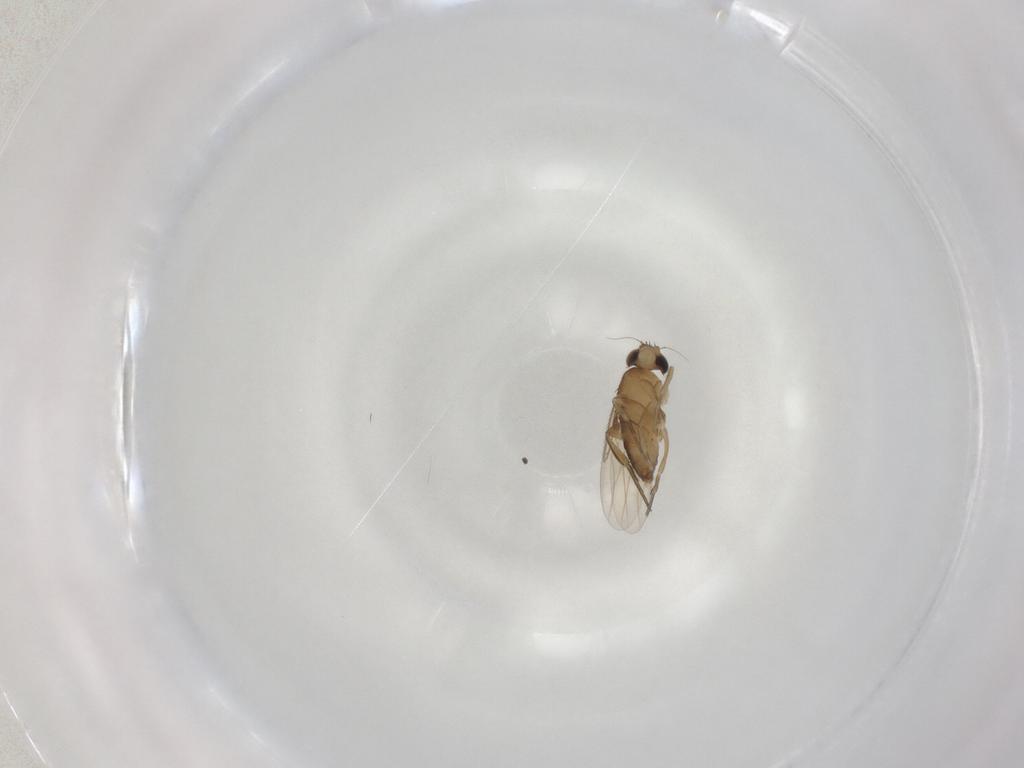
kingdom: Animalia
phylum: Arthropoda
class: Insecta
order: Diptera
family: Phoridae
